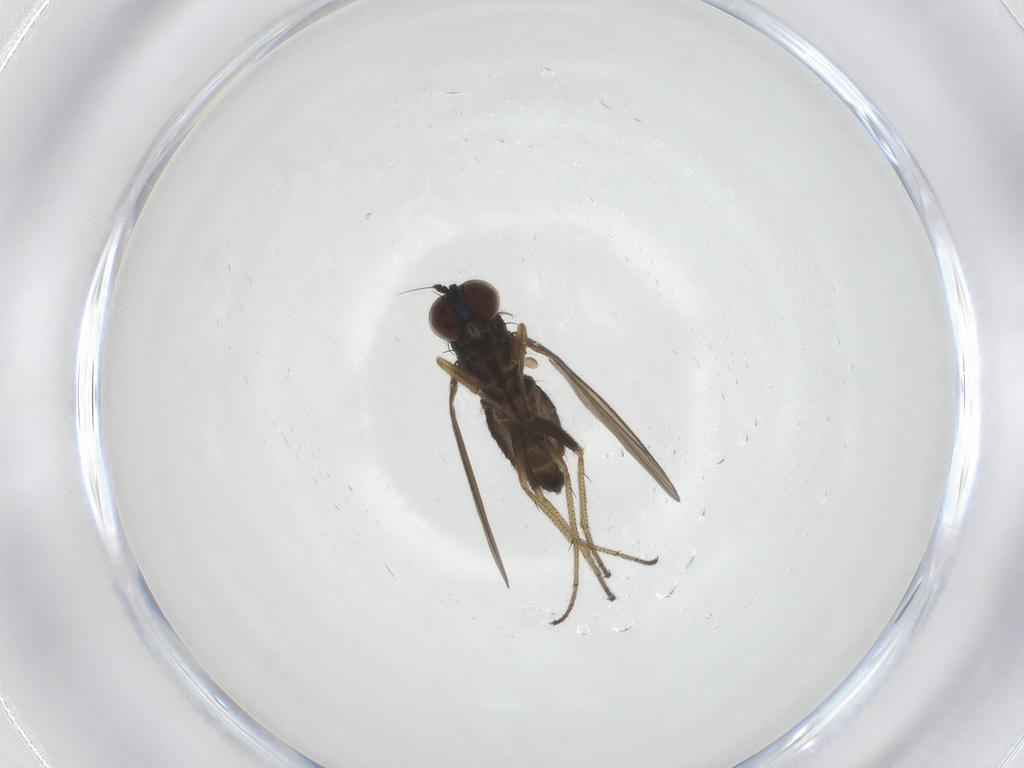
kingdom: Animalia
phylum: Arthropoda
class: Insecta
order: Diptera
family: Dolichopodidae
